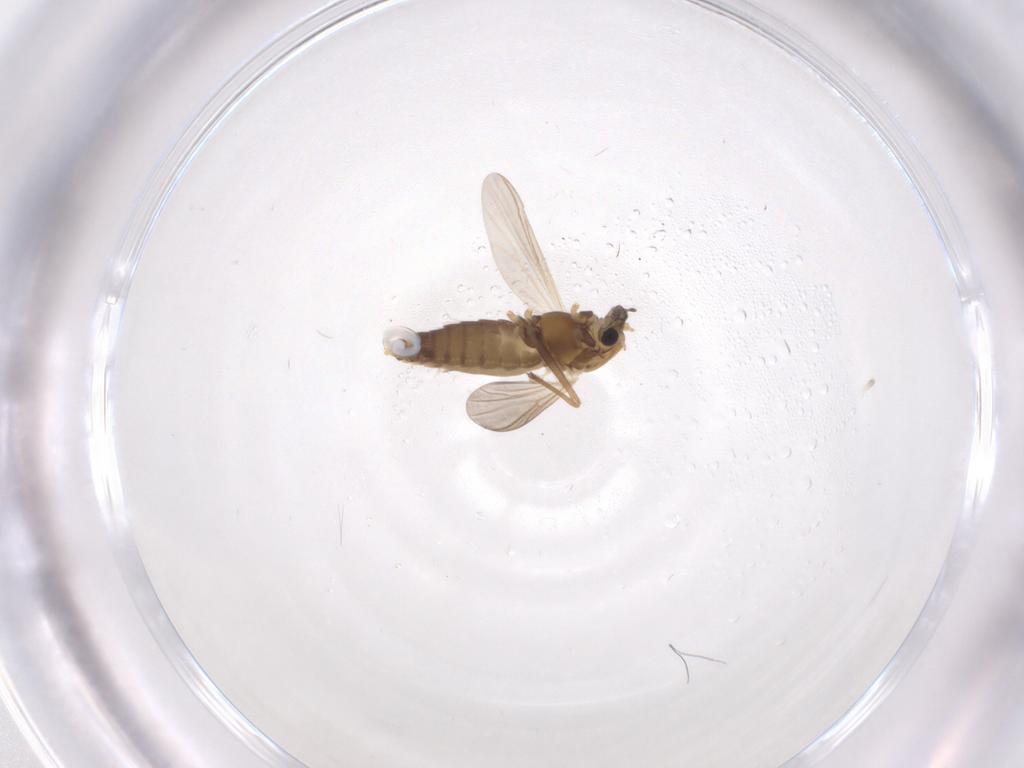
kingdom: Animalia
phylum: Arthropoda
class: Insecta
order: Diptera
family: Chironomidae
